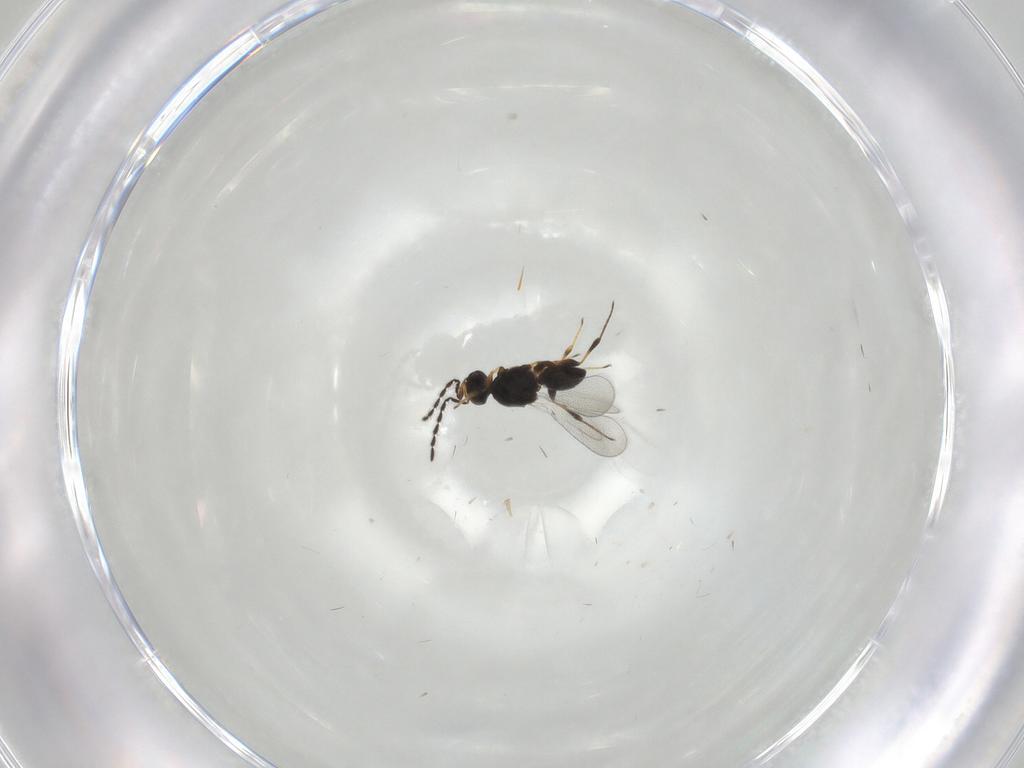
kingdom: Animalia
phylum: Arthropoda
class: Insecta
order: Hymenoptera
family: Platygastridae
